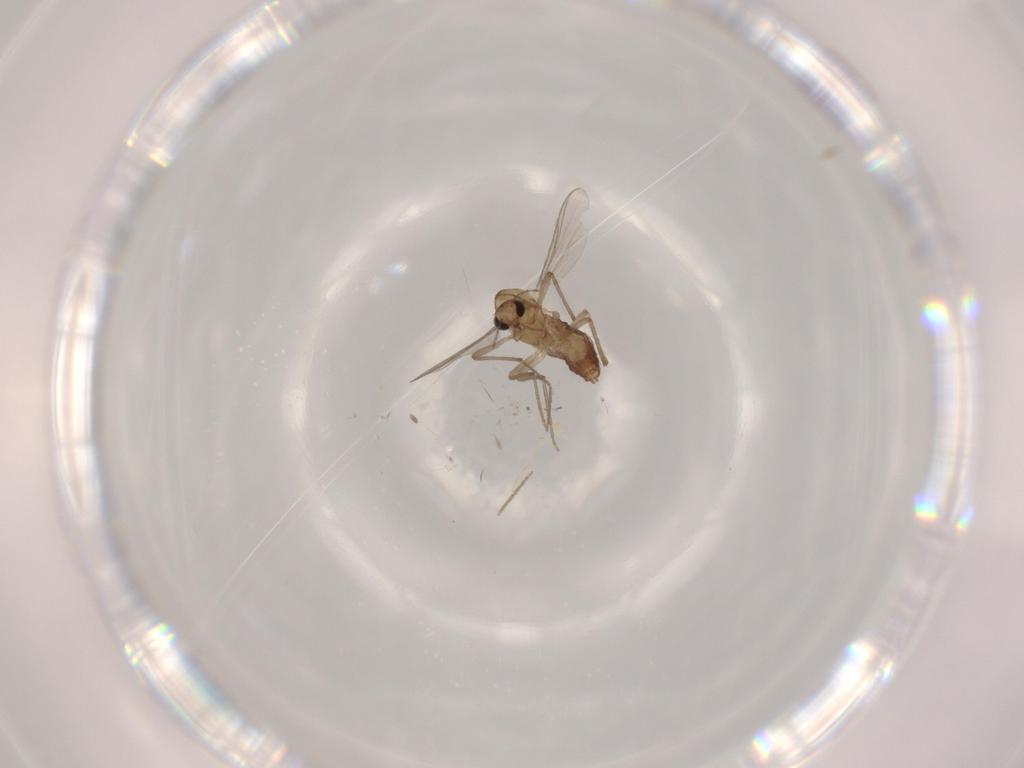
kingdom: Animalia
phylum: Arthropoda
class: Insecta
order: Diptera
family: Chironomidae
